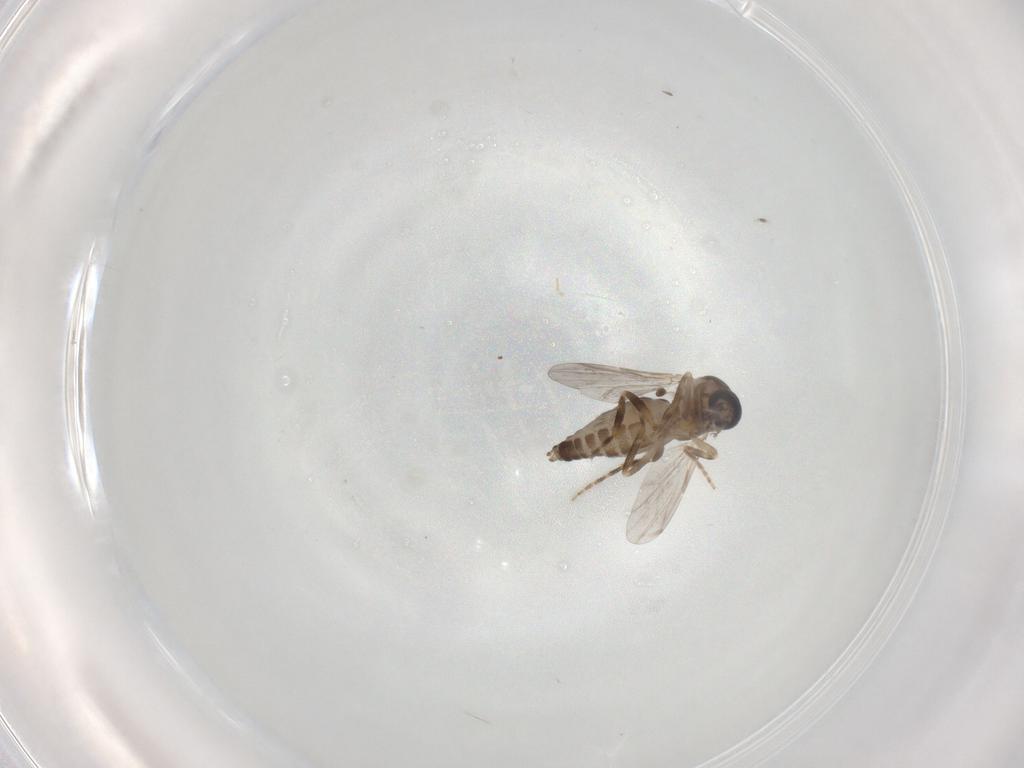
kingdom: Animalia
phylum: Arthropoda
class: Insecta
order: Diptera
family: Ceratopogonidae
